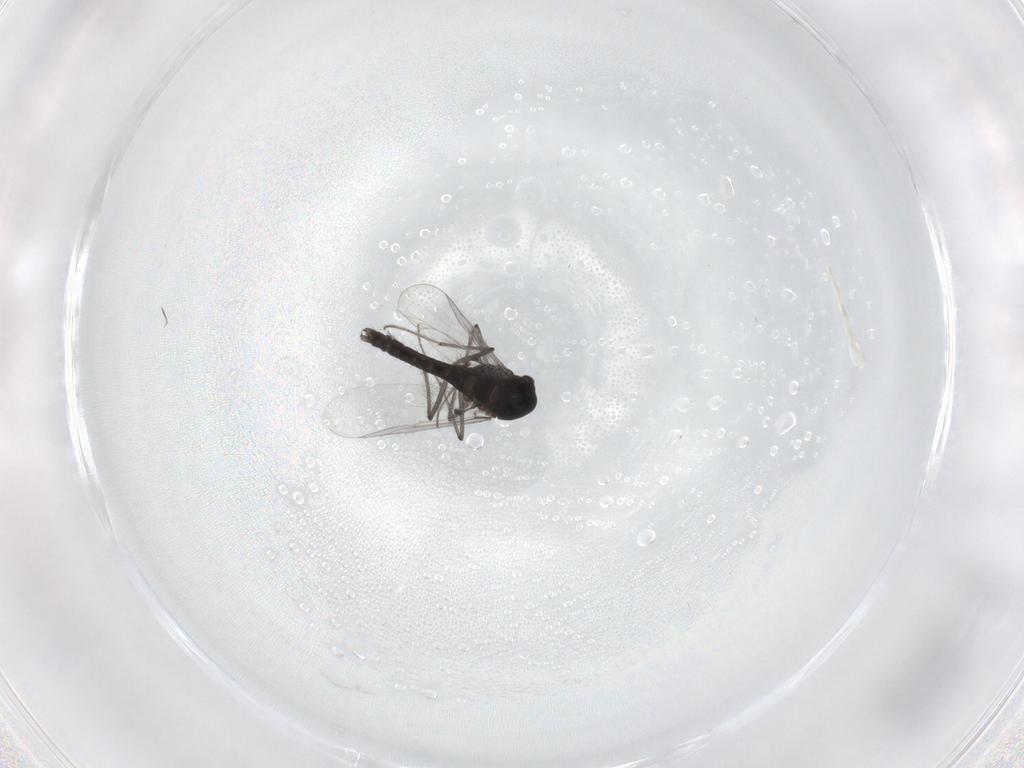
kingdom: Animalia
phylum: Arthropoda
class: Insecta
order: Diptera
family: Chironomidae
